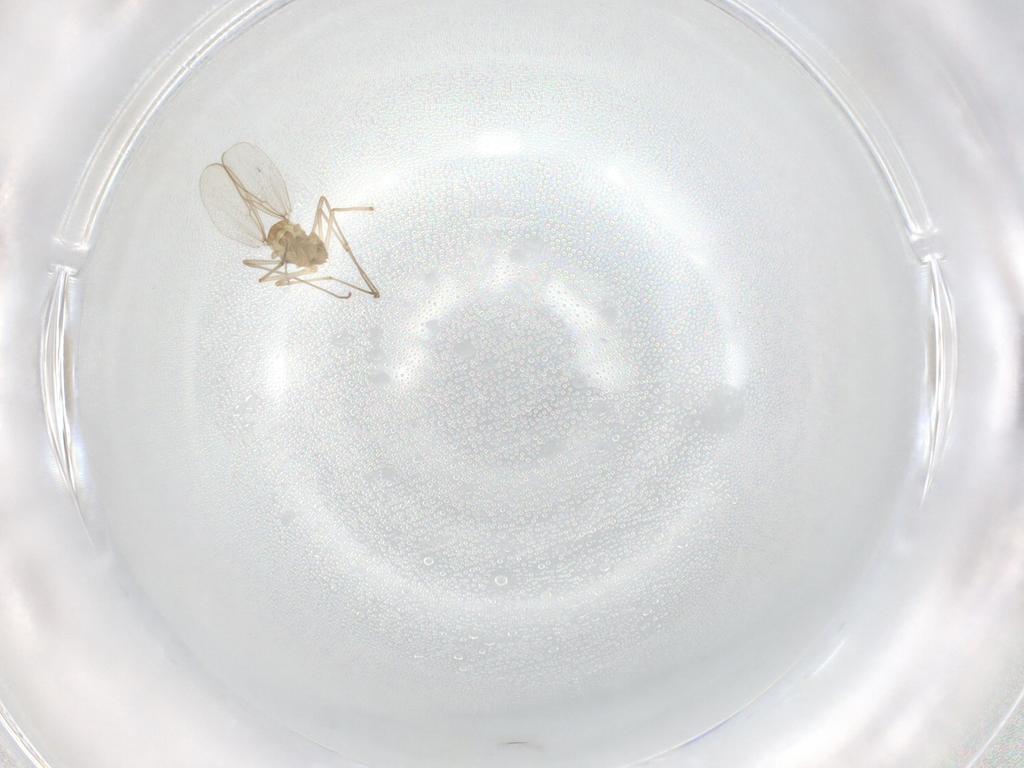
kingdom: Animalia
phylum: Arthropoda
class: Insecta
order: Diptera
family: Chironomidae
